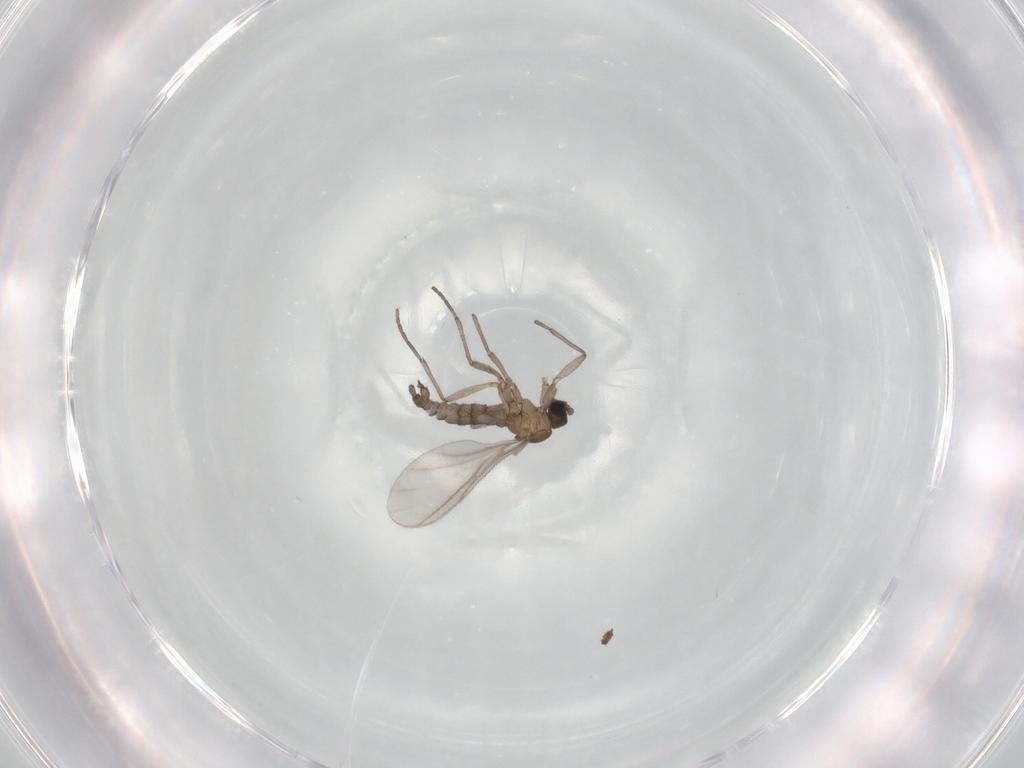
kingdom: Animalia
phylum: Arthropoda
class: Insecta
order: Diptera
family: Sciaridae
